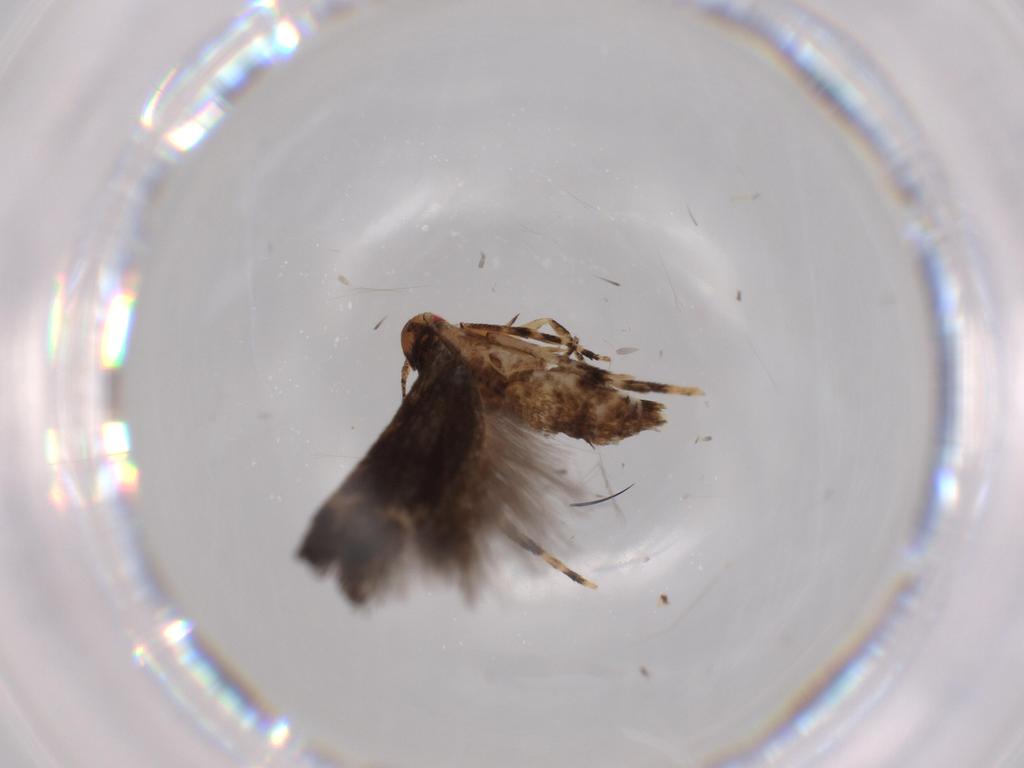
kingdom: Animalia
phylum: Arthropoda
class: Insecta
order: Lepidoptera
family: Momphidae
